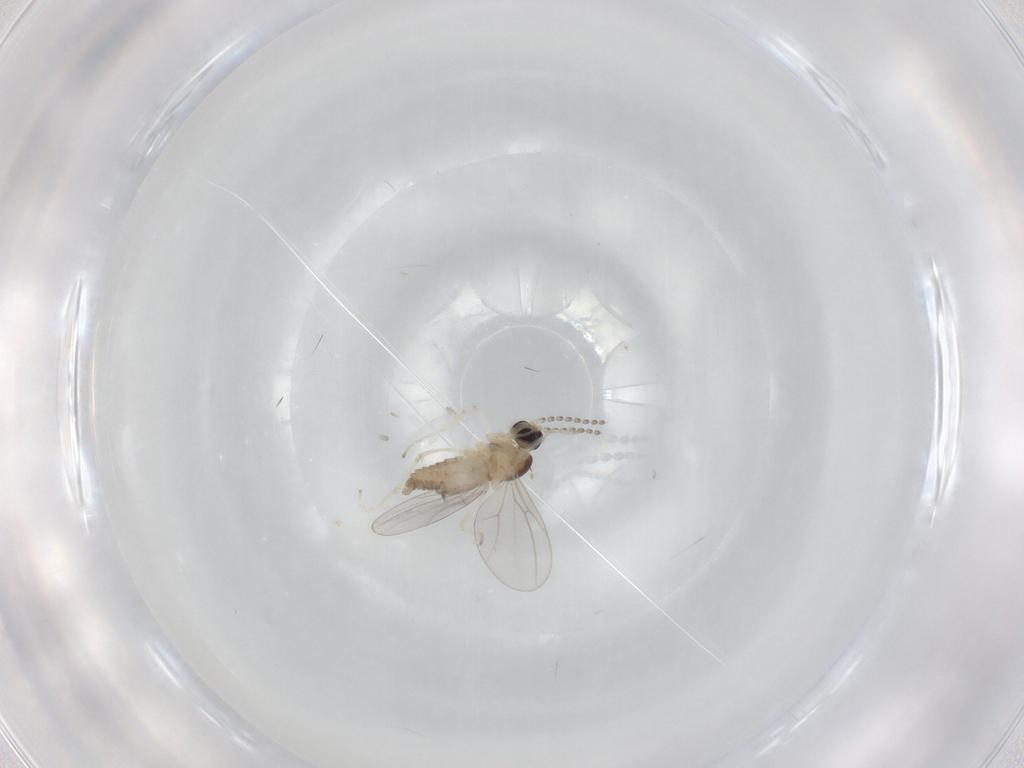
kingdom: Animalia
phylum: Arthropoda
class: Insecta
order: Diptera
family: Cecidomyiidae
